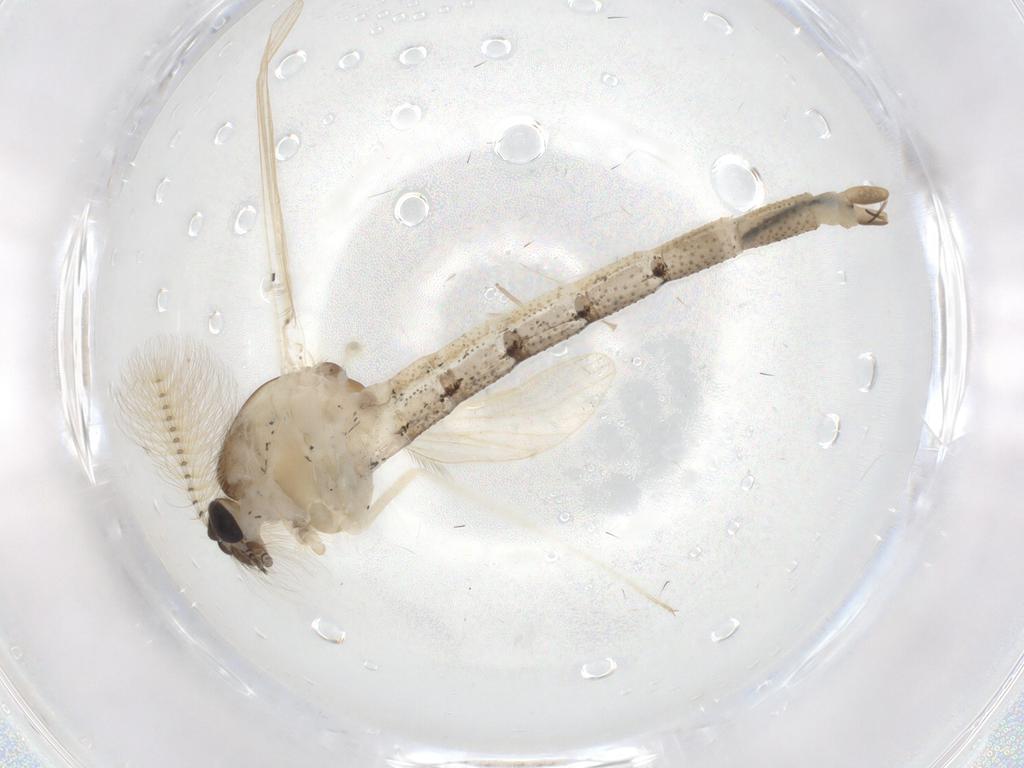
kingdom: Animalia
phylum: Arthropoda
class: Insecta
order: Diptera
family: Cecidomyiidae
